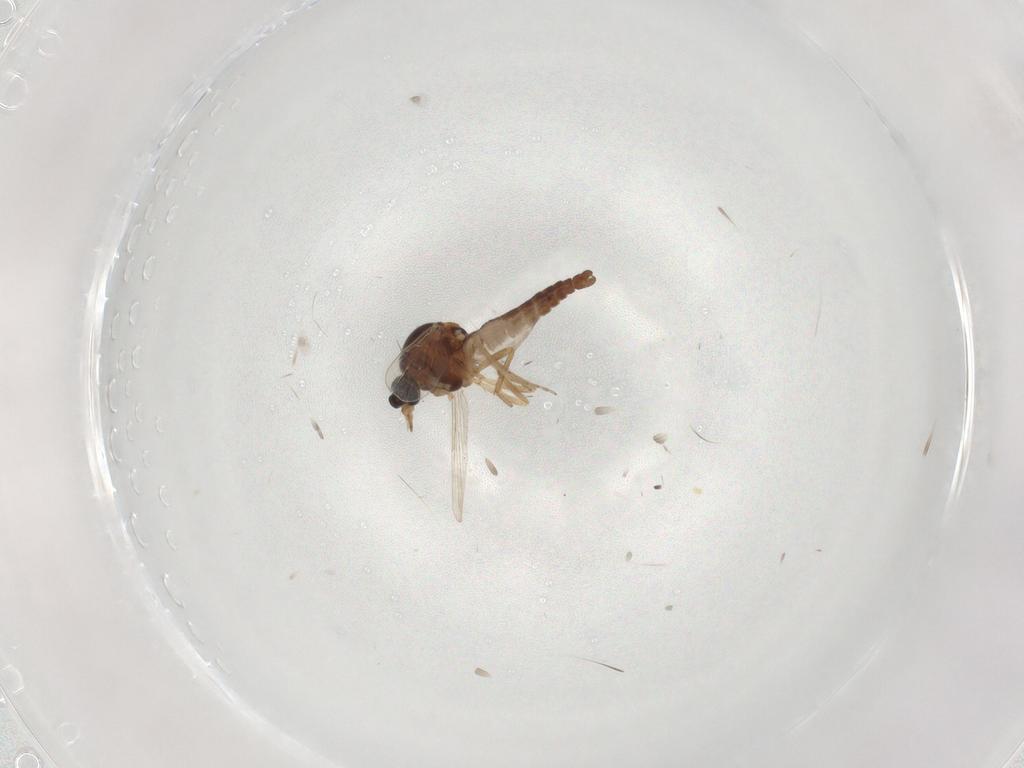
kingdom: Animalia
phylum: Arthropoda
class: Insecta
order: Diptera
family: Ceratopogonidae
